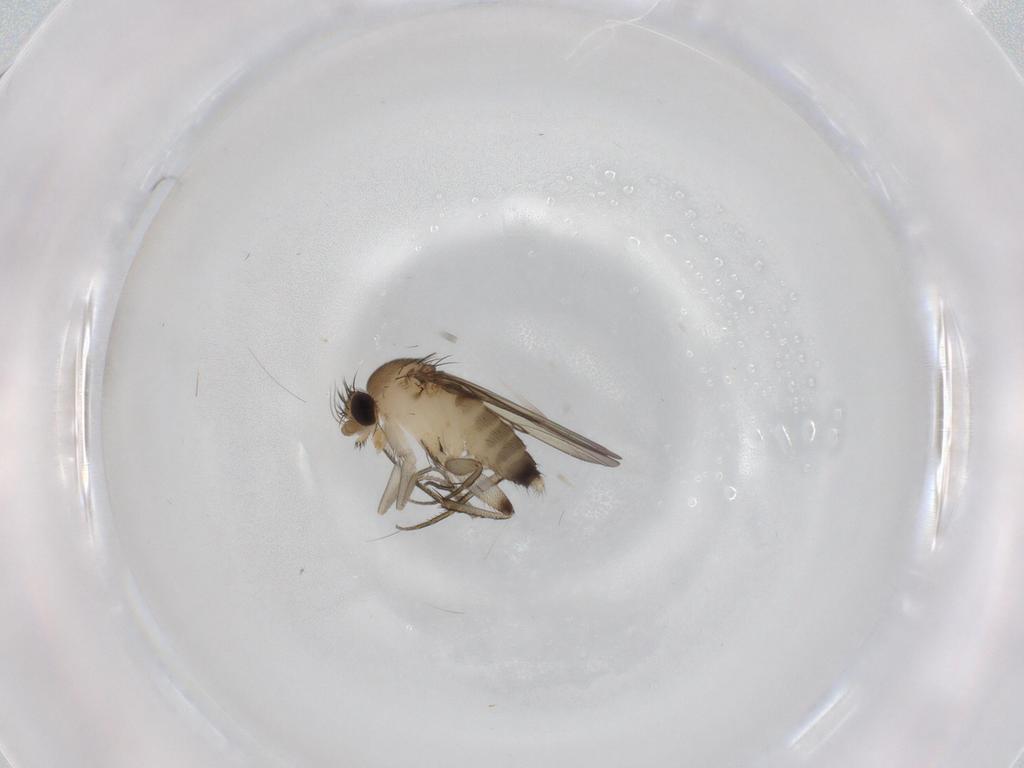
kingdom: Animalia
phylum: Arthropoda
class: Insecta
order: Diptera
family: Phoridae
